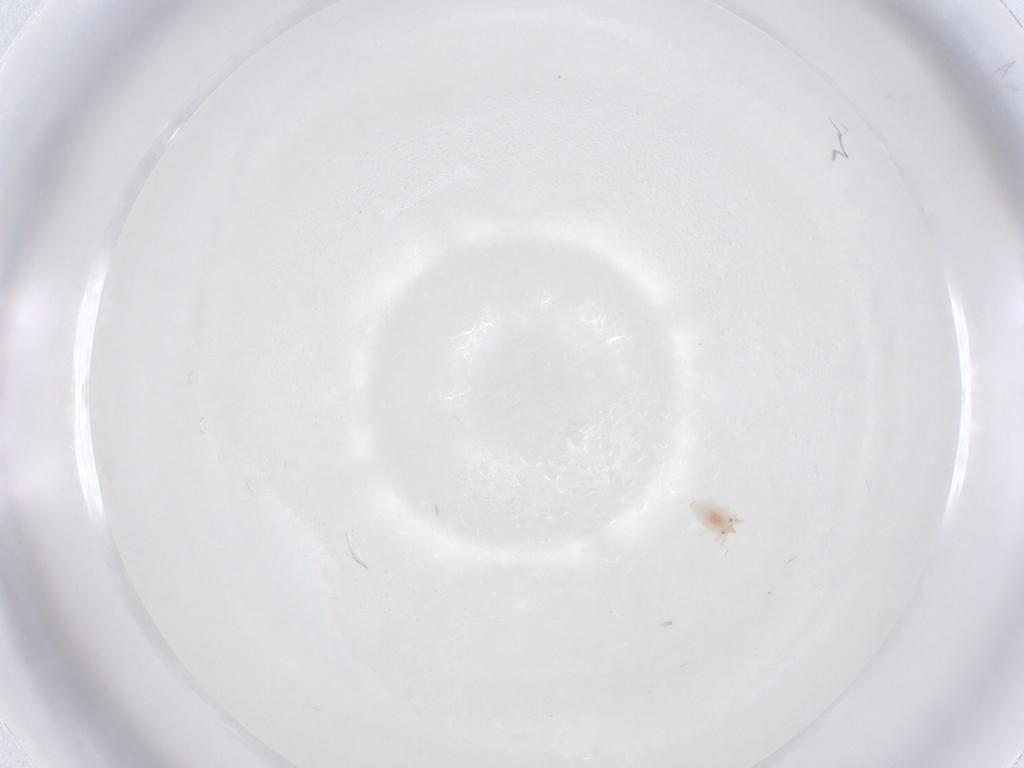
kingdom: Animalia
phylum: Arthropoda
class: Insecta
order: Neuroptera
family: Coniopterygidae
